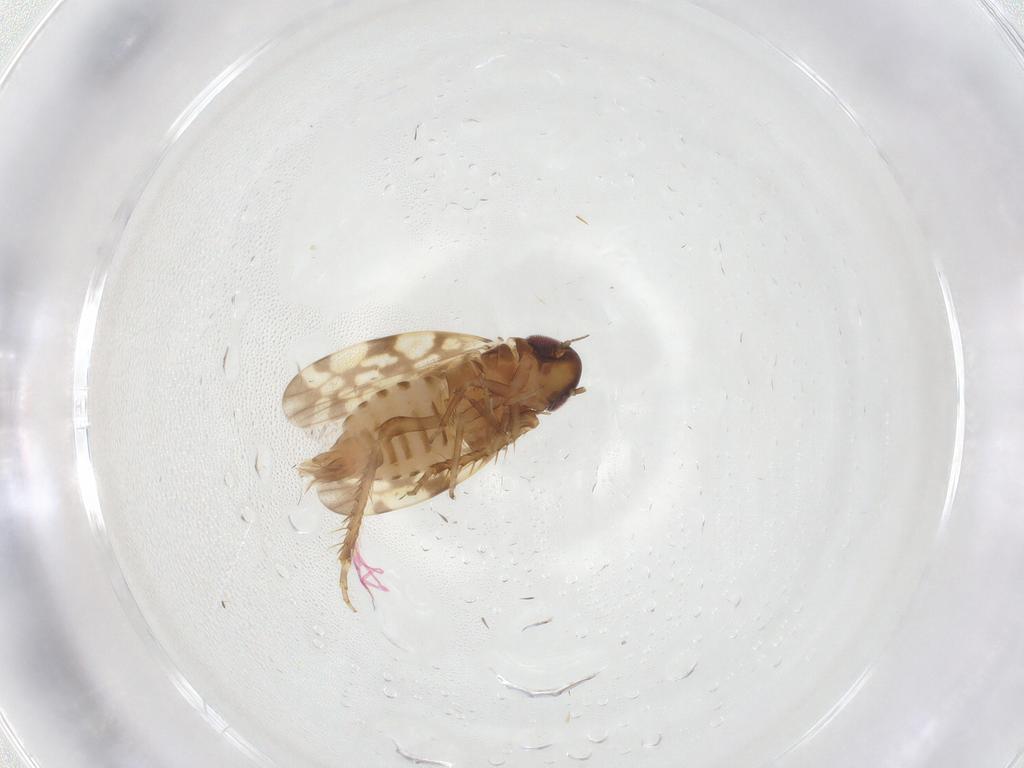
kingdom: Animalia
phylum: Arthropoda
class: Insecta
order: Hemiptera
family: Cicadellidae
